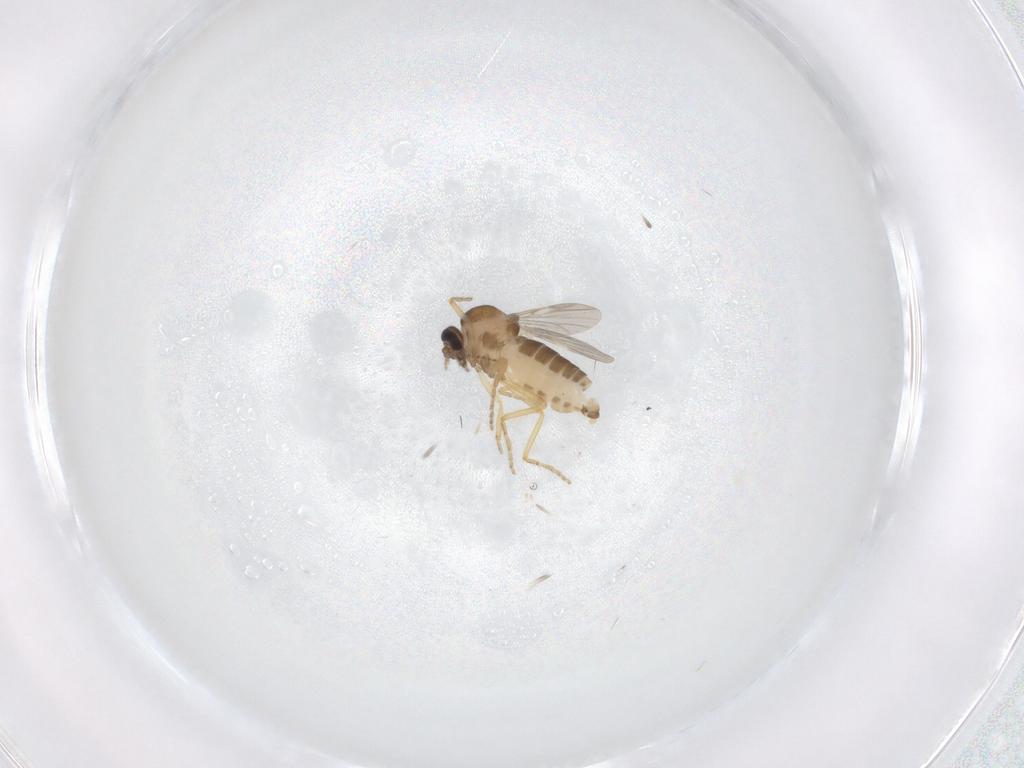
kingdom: Animalia
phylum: Arthropoda
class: Insecta
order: Diptera
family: Ceratopogonidae
